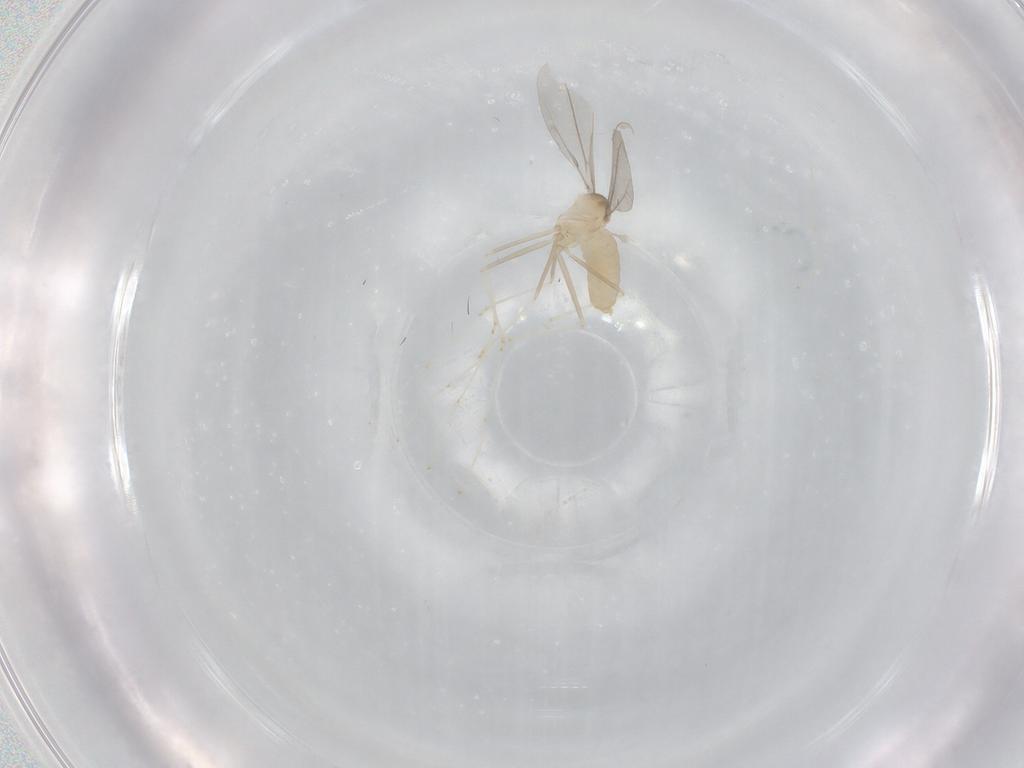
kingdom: Animalia
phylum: Arthropoda
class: Insecta
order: Diptera
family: Cecidomyiidae
